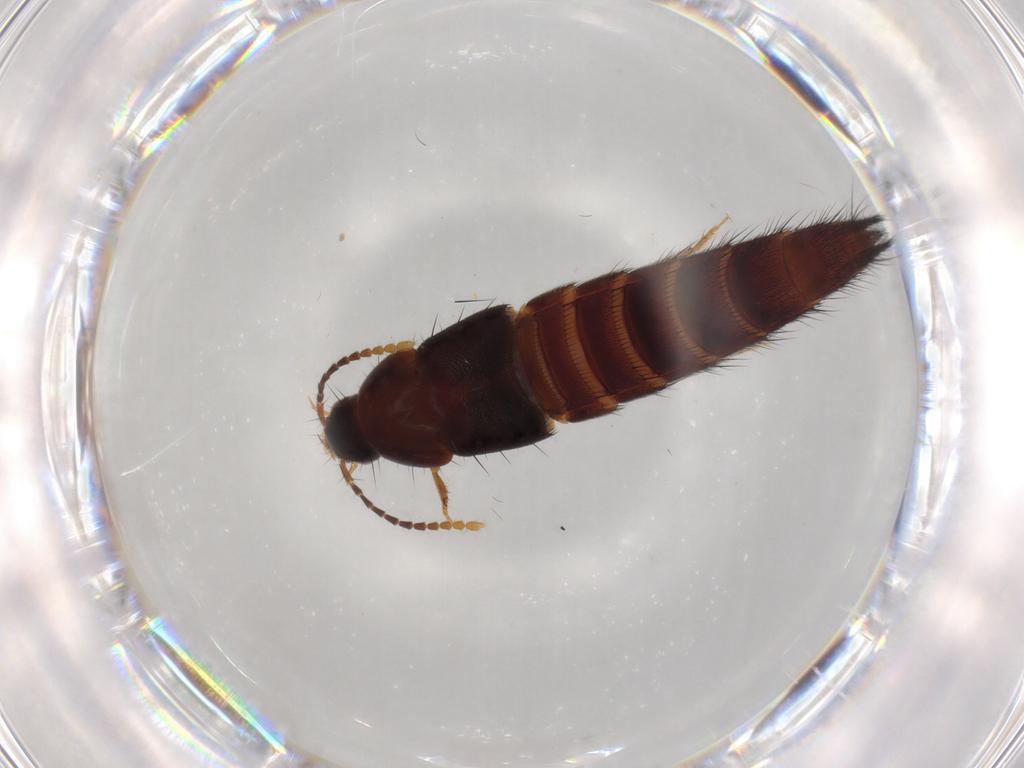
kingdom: Animalia
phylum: Arthropoda
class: Insecta
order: Coleoptera
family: Staphylinidae
